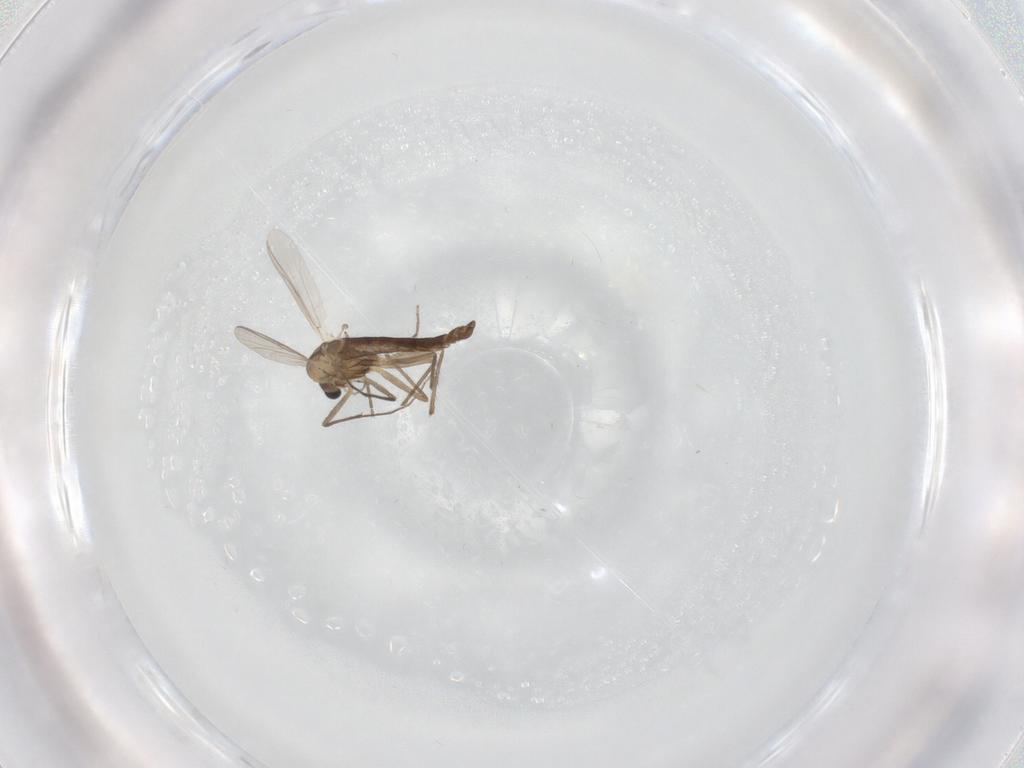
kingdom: Animalia
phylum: Arthropoda
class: Insecta
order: Diptera
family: Chironomidae
